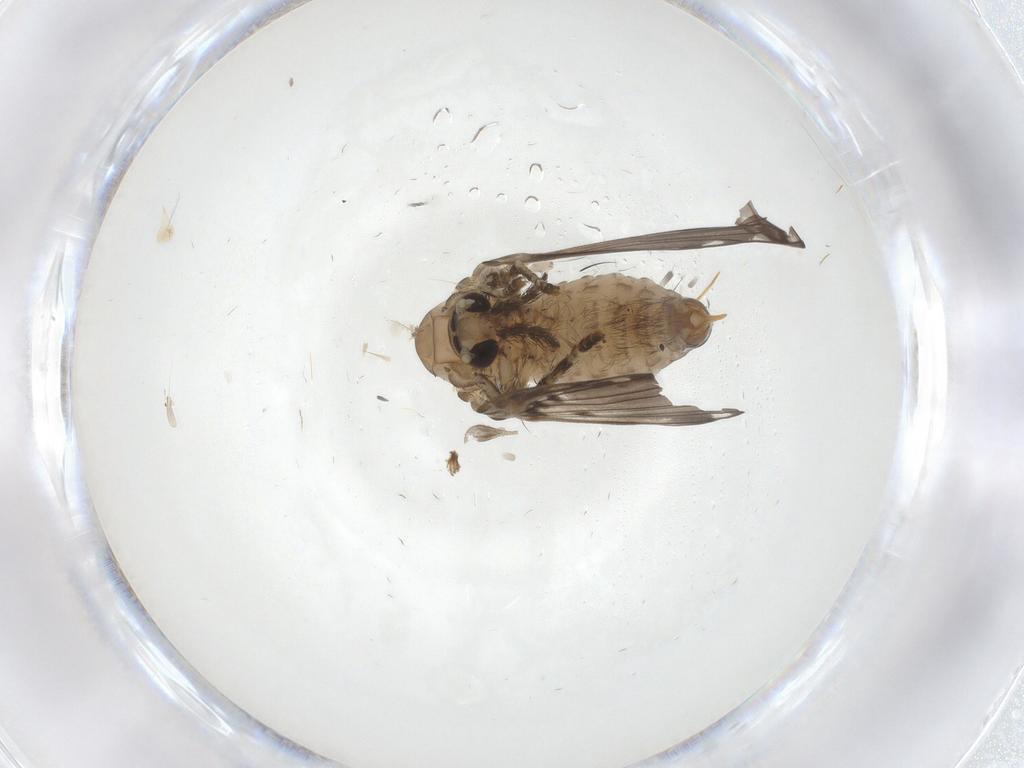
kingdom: Animalia
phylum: Arthropoda
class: Insecta
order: Diptera
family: Psychodidae
